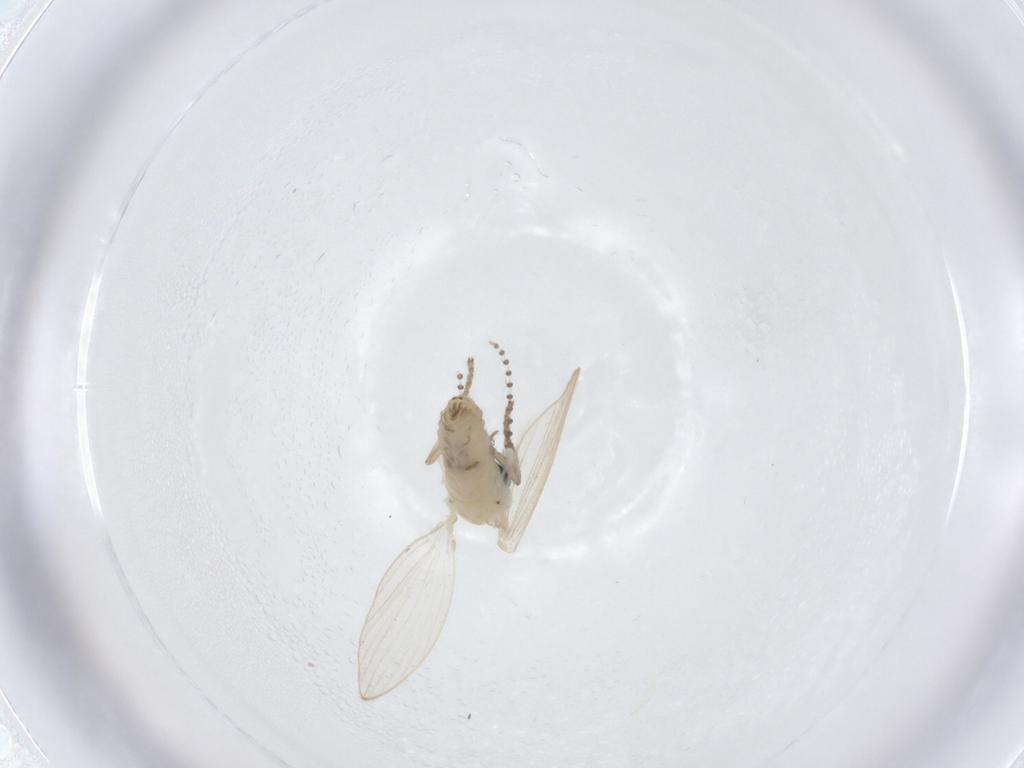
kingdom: Animalia
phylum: Arthropoda
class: Insecta
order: Diptera
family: Psychodidae
